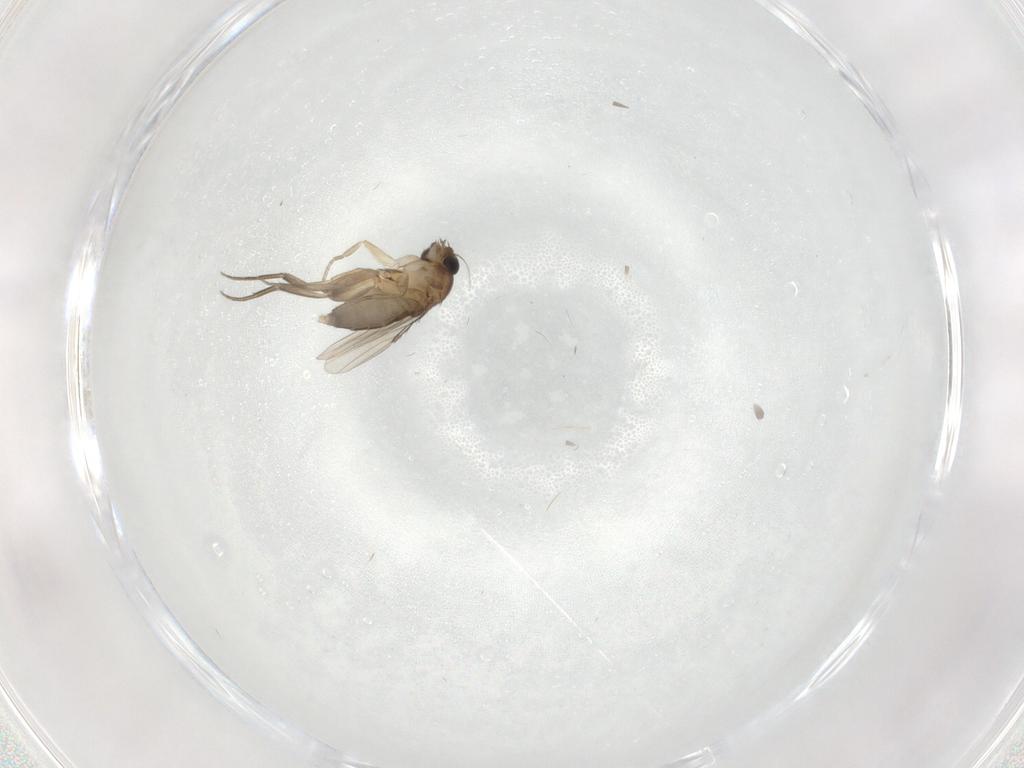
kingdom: Animalia
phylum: Arthropoda
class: Insecta
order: Diptera
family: Phoridae
